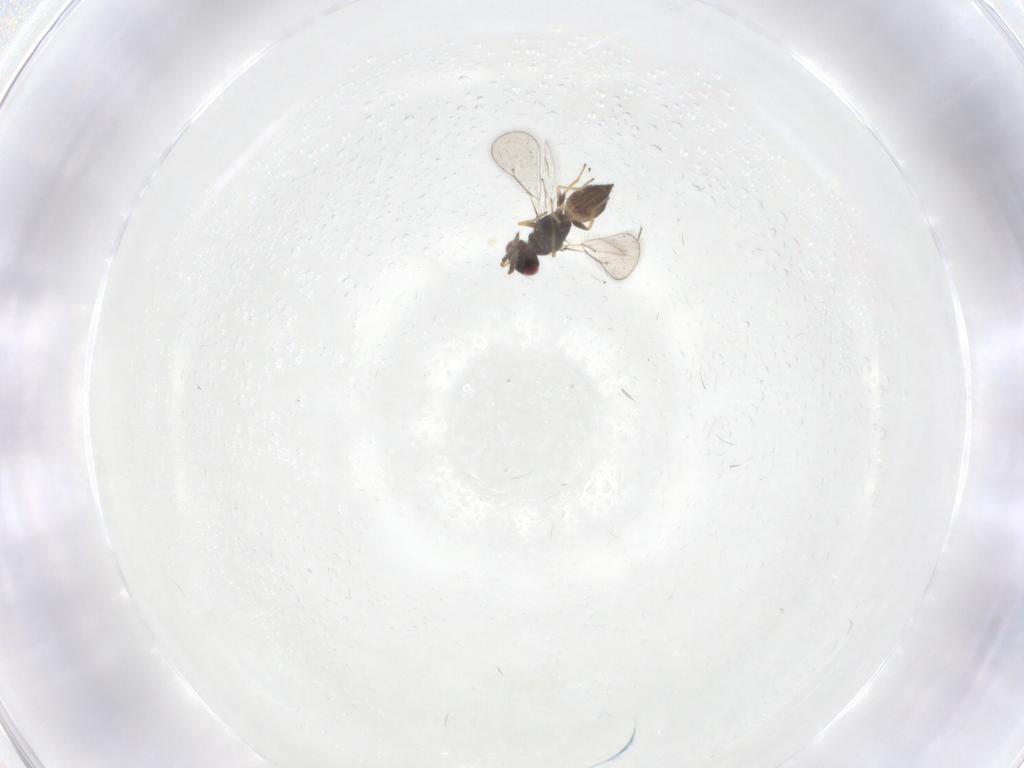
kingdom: Animalia
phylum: Arthropoda
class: Insecta
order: Hymenoptera
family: Eulophidae
